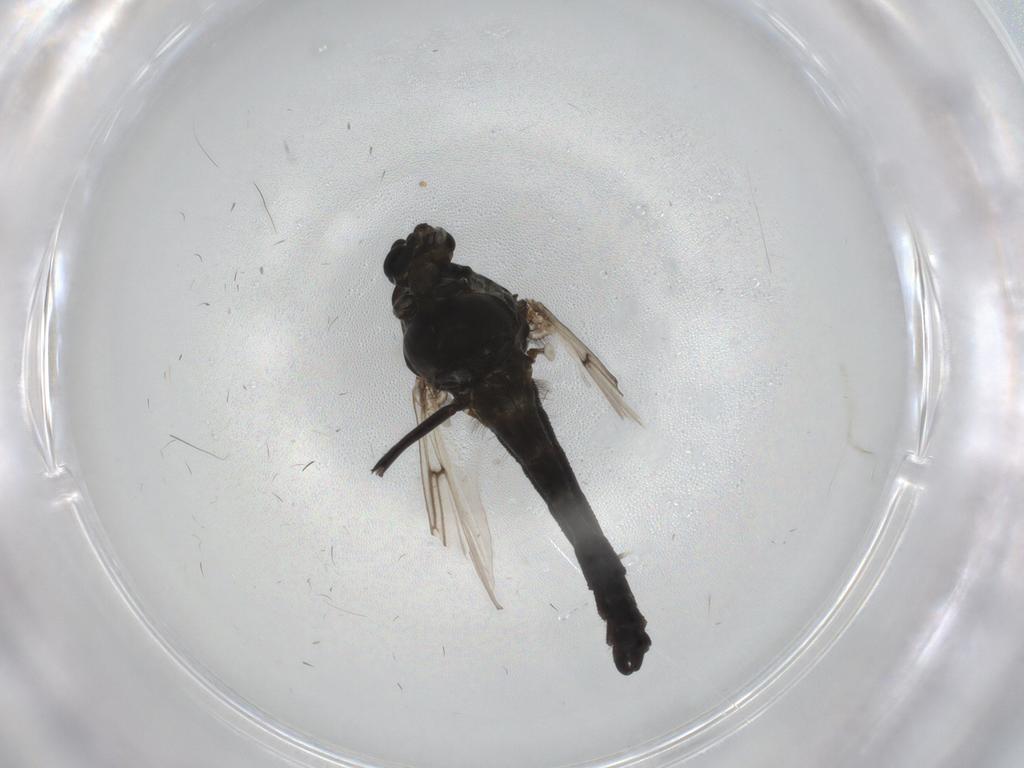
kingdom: Animalia
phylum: Arthropoda
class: Insecta
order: Diptera
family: Chironomidae
